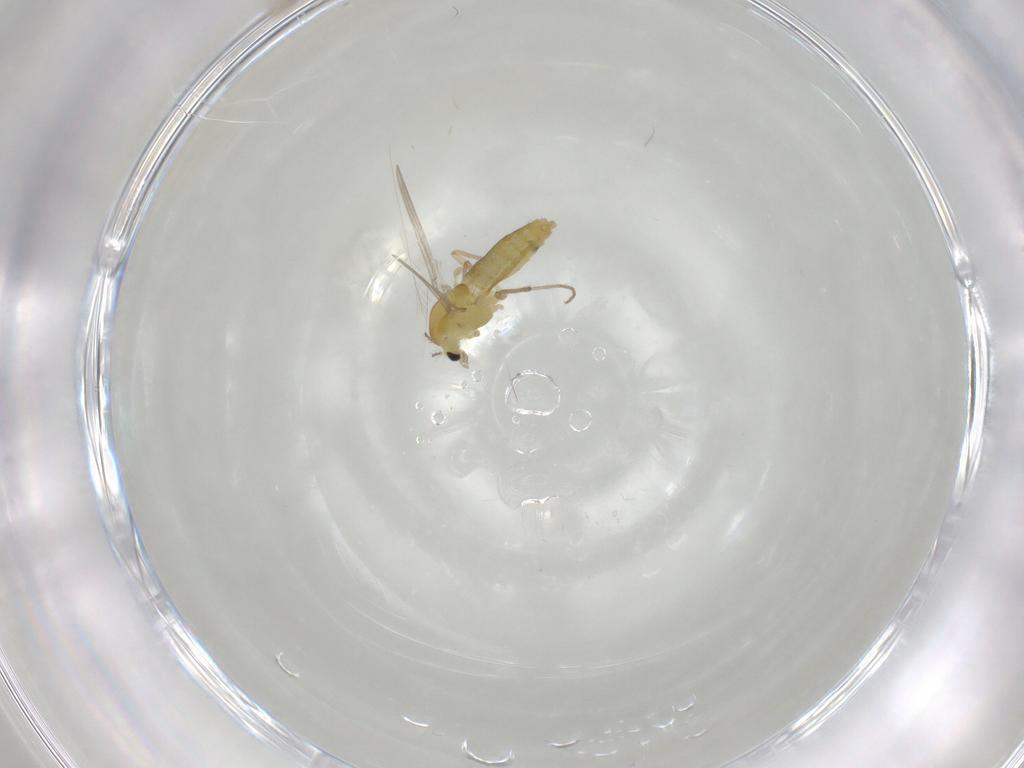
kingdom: Animalia
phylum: Arthropoda
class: Insecta
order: Diptera
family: Chironomidae
